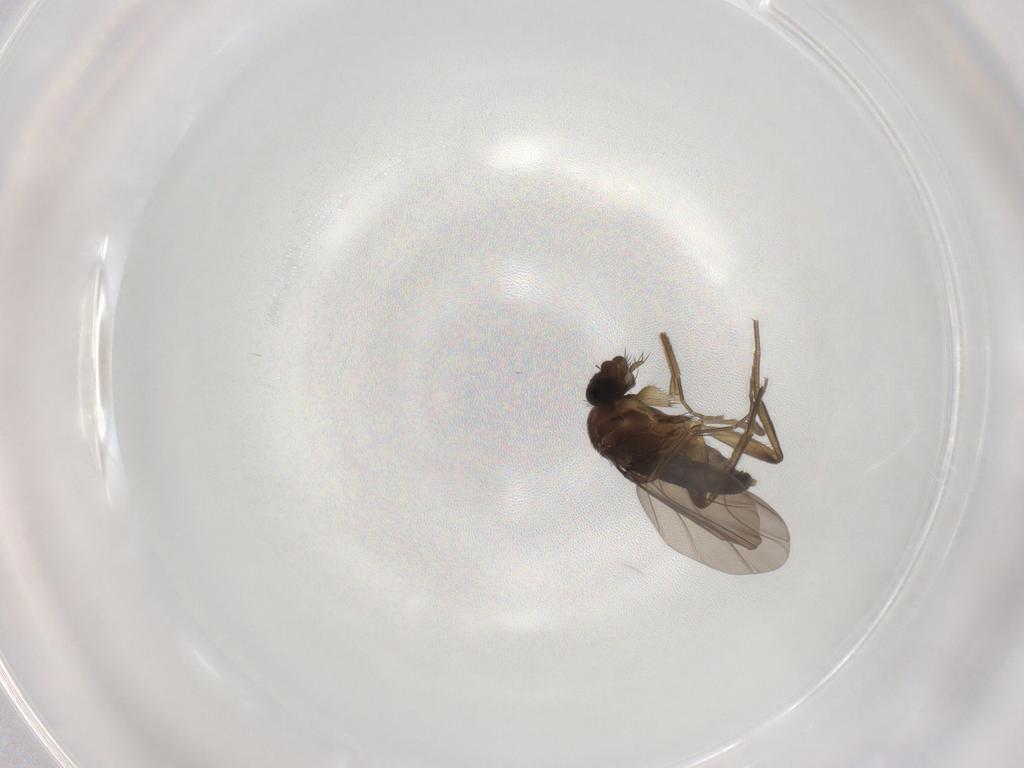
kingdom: Animalia
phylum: Arthropoda
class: Insecta
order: Diptera
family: Phoridae
